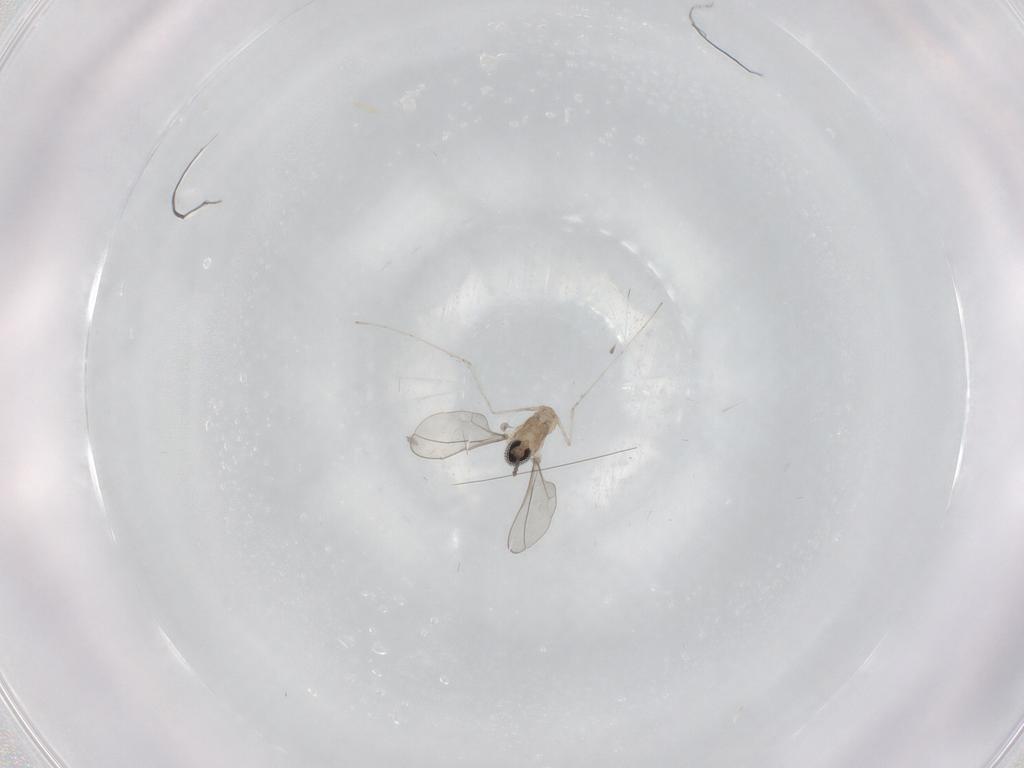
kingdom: Animalia
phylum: Arthropoda
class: Insecta
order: Diptera
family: Cecidomyiidae
